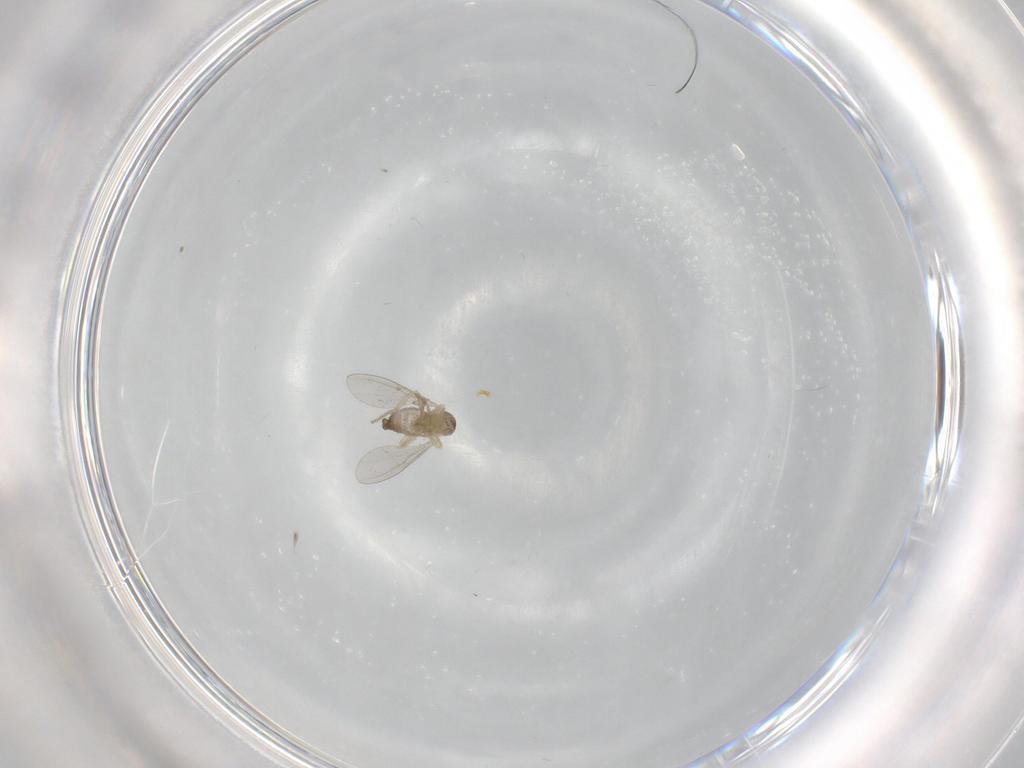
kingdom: Animalia
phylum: Arthropoda
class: Insecta
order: Diptera
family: Cecidomyiidae
